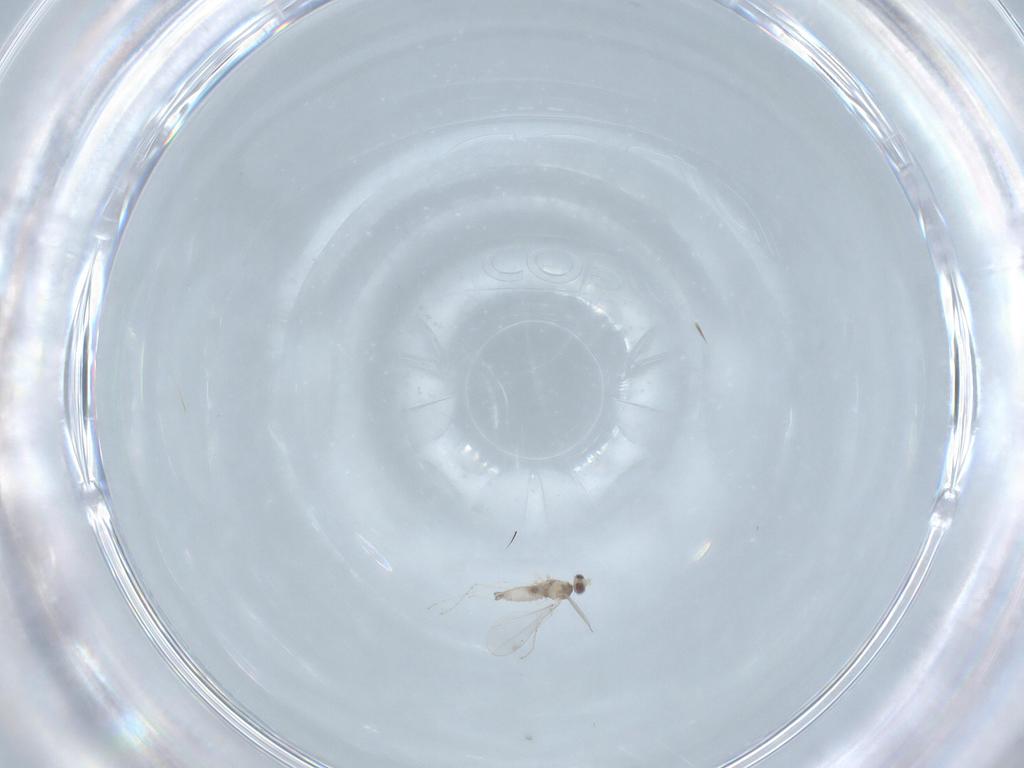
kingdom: Animalia
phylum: Arthropoda
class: Insecta
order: Diptera
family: Cecidomyiidae
